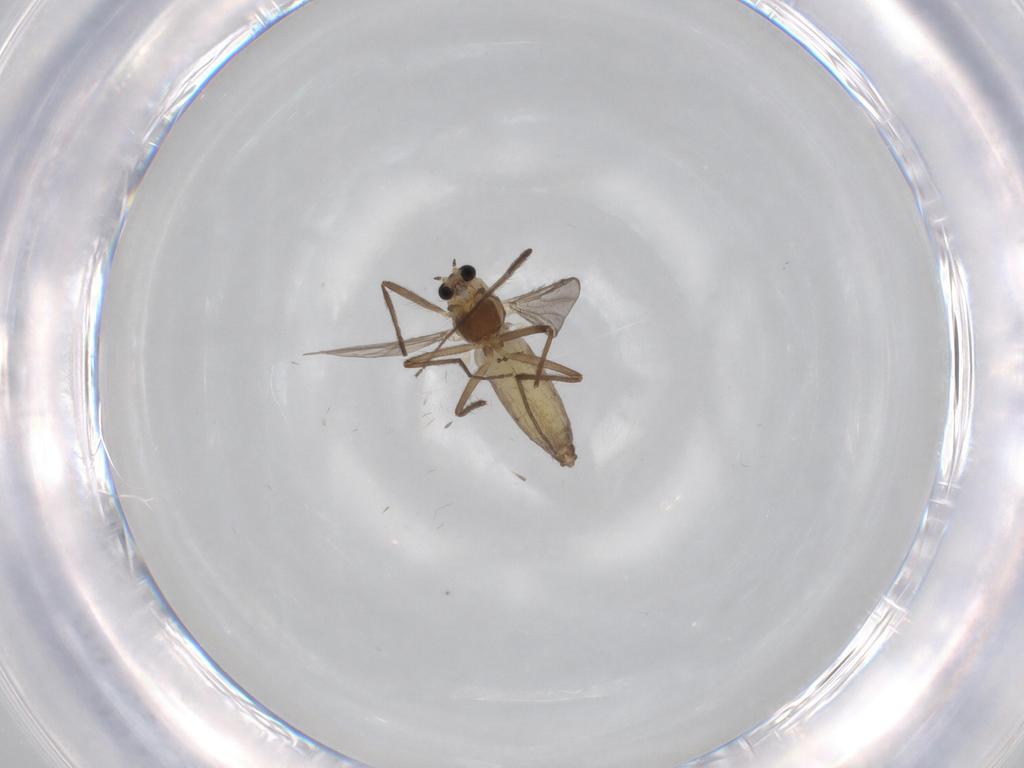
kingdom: Animalia
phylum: Arthropoda
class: Insecta
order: Diptera
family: Chironomidae
